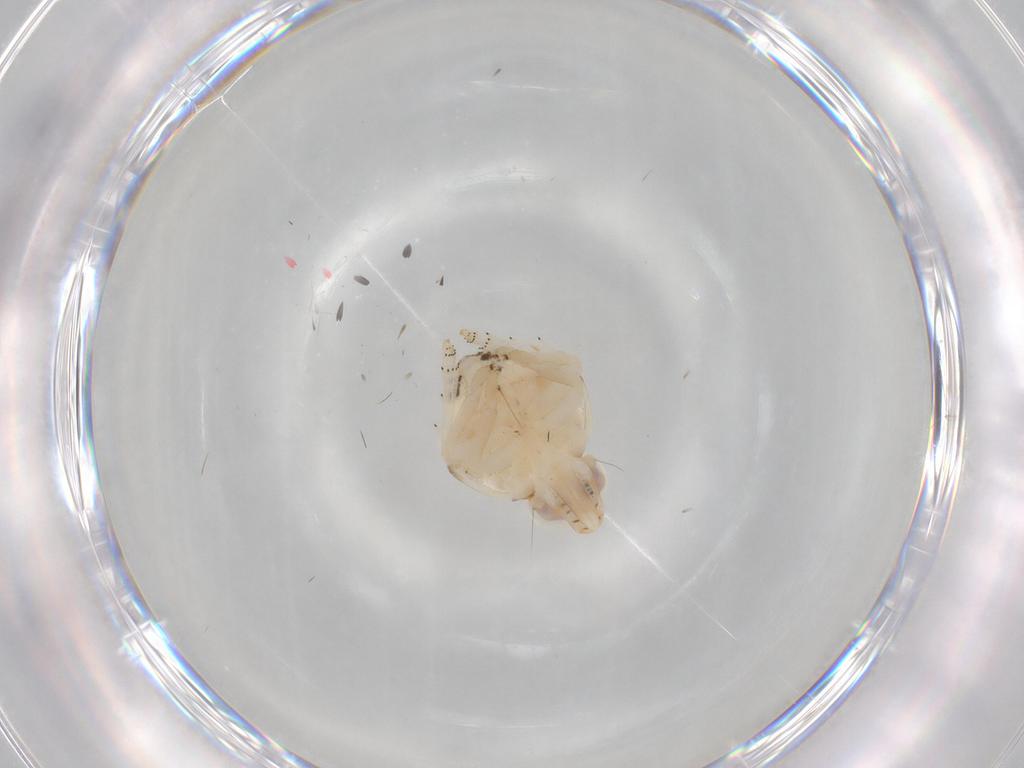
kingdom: Animalia
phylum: Arthropoda
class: Insecta
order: Hemiptera
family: Nogodinidae
